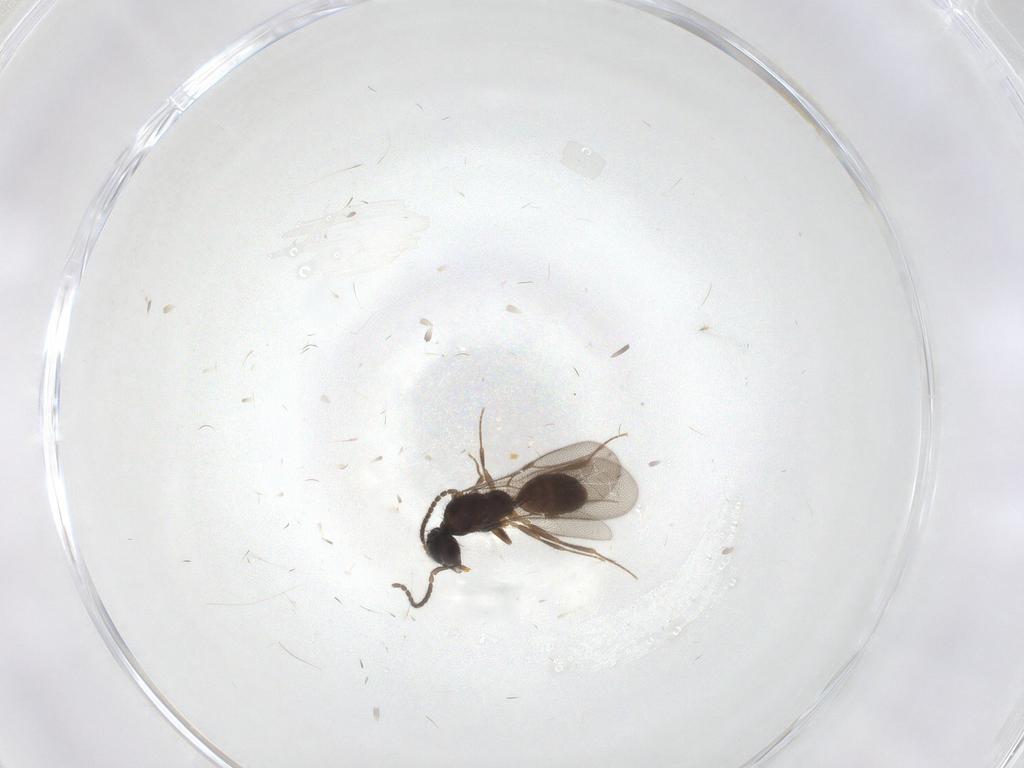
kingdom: Animalia
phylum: Arthropoda
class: Insecta
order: Hymenoptera
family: Bethylidae
